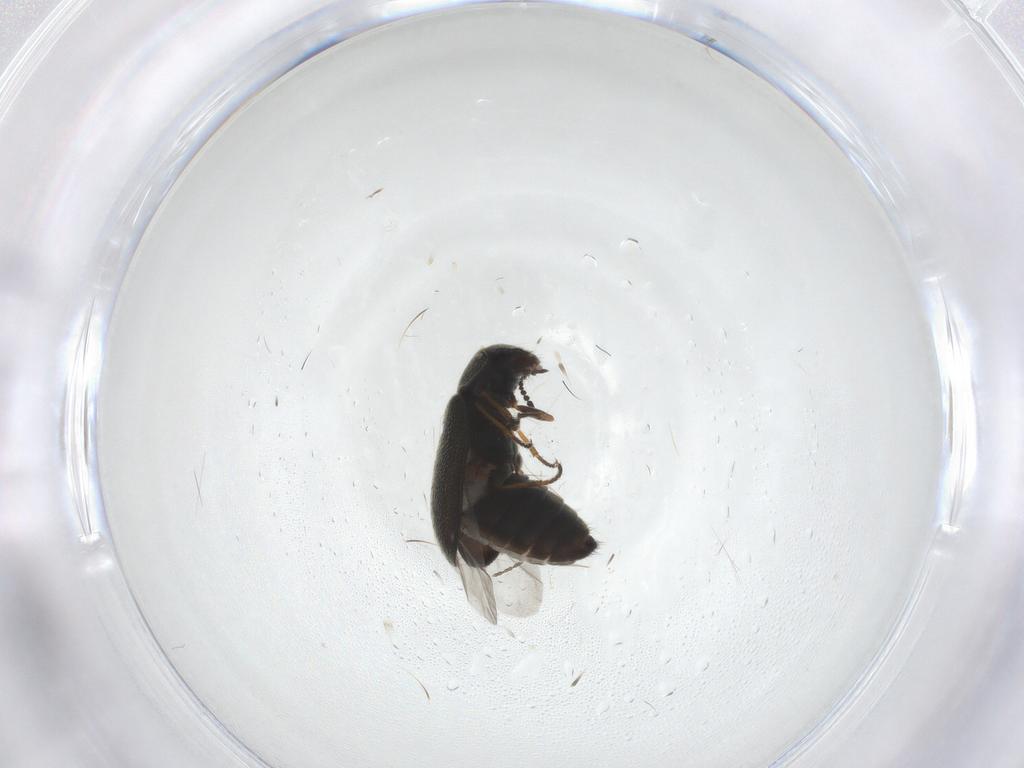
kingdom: Animalia
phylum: Arthropoda
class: Insecta
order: Coleoptera
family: Melyridae
